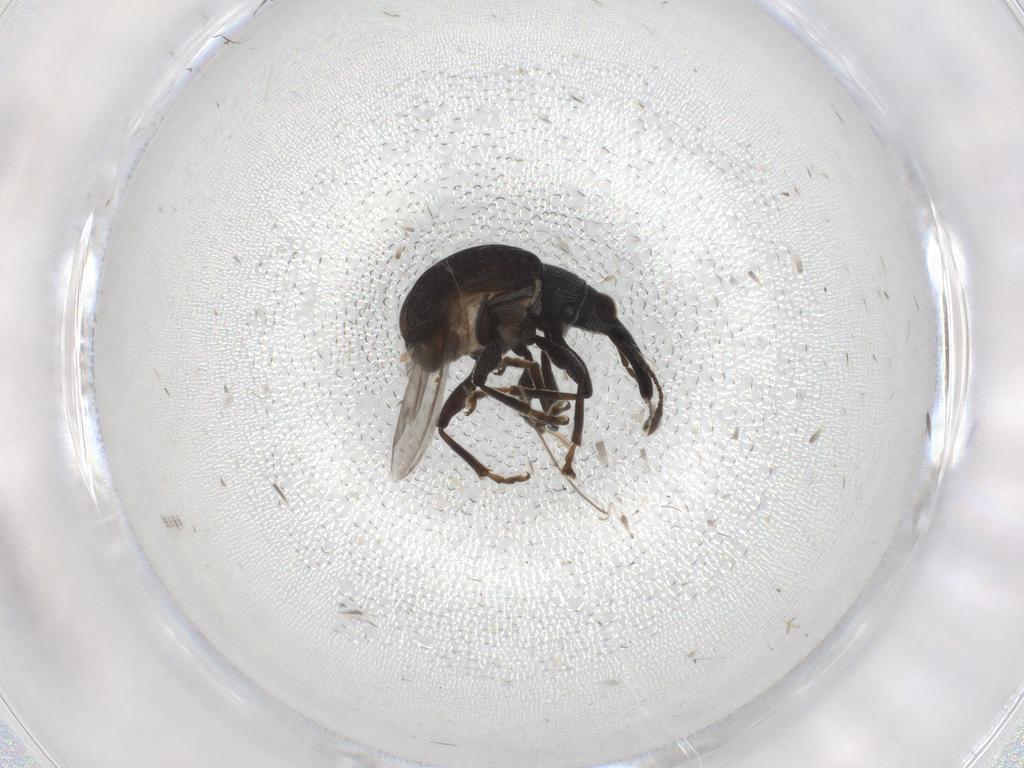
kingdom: Animalia
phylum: Arthropoda
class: Insecta
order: Coleoptera
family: Brentidae
